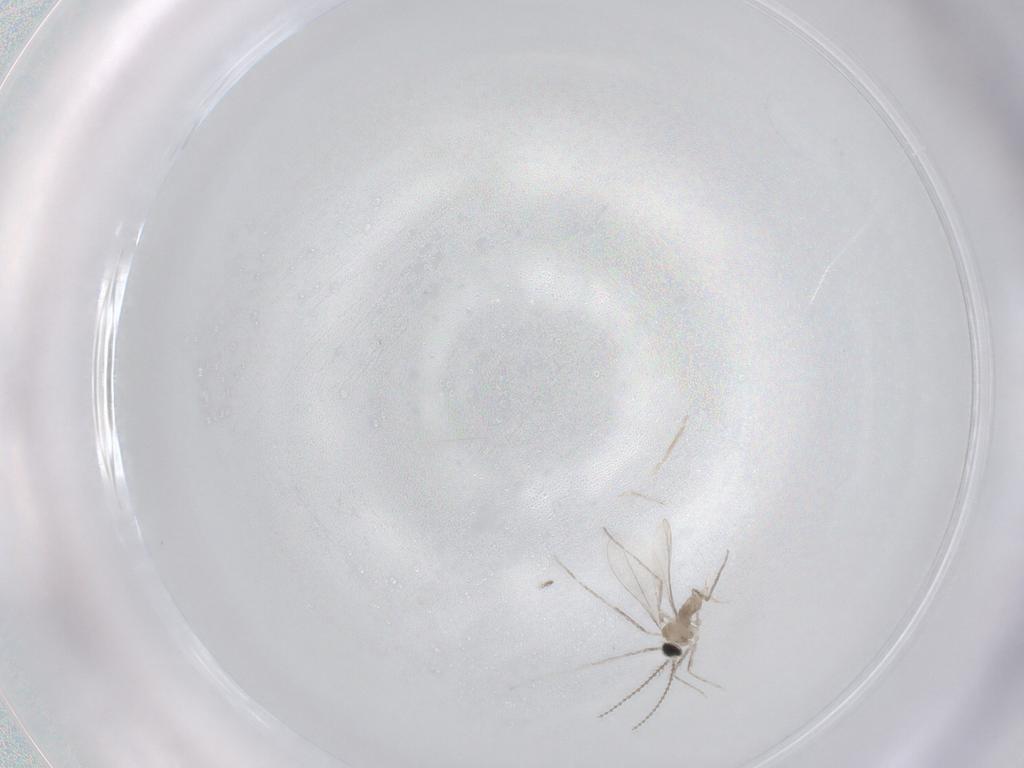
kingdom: Animalia
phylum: Arthropoda
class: Insecta
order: Diptera
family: Cecidomyiidae
